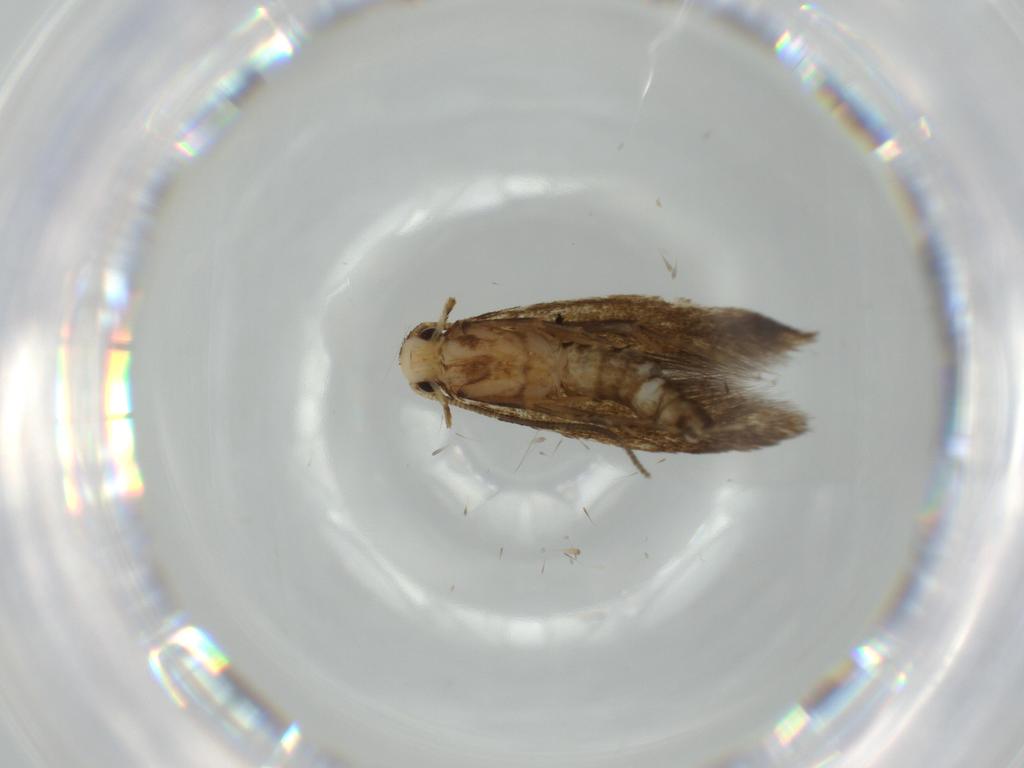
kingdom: Animalia
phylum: Arthropoda
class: Insecta
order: Lepidoptera
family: Tineidae
